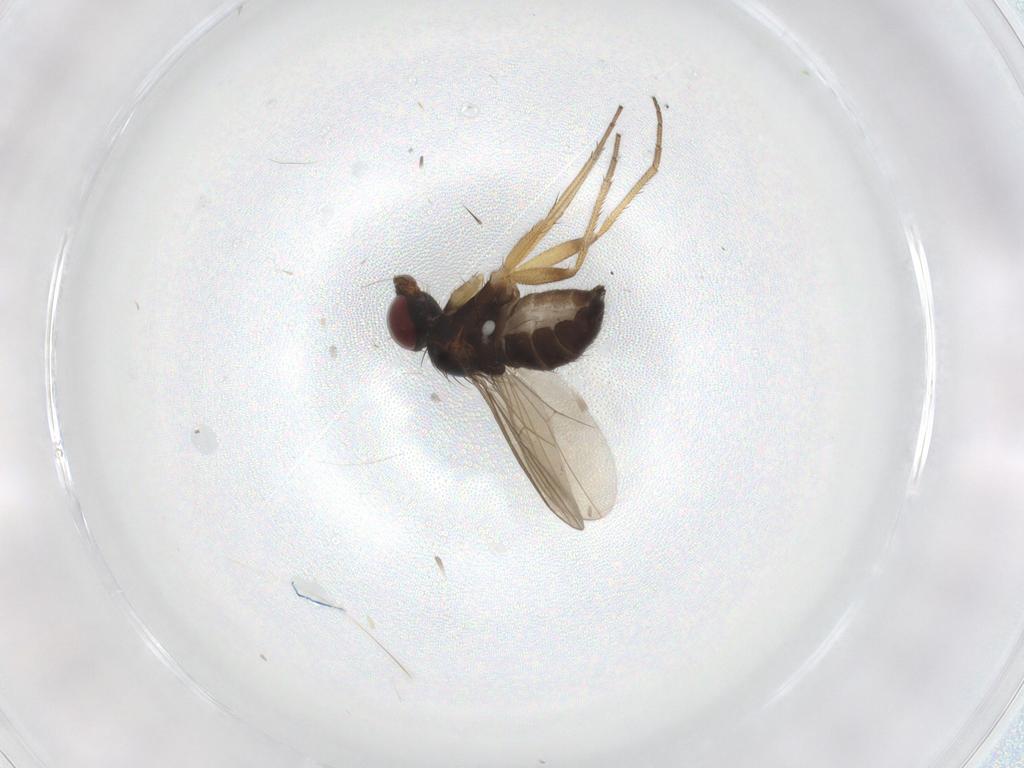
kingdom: Animalia
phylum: Arthropoda
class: Insecta
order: Diptera
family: Dolichopodidae
